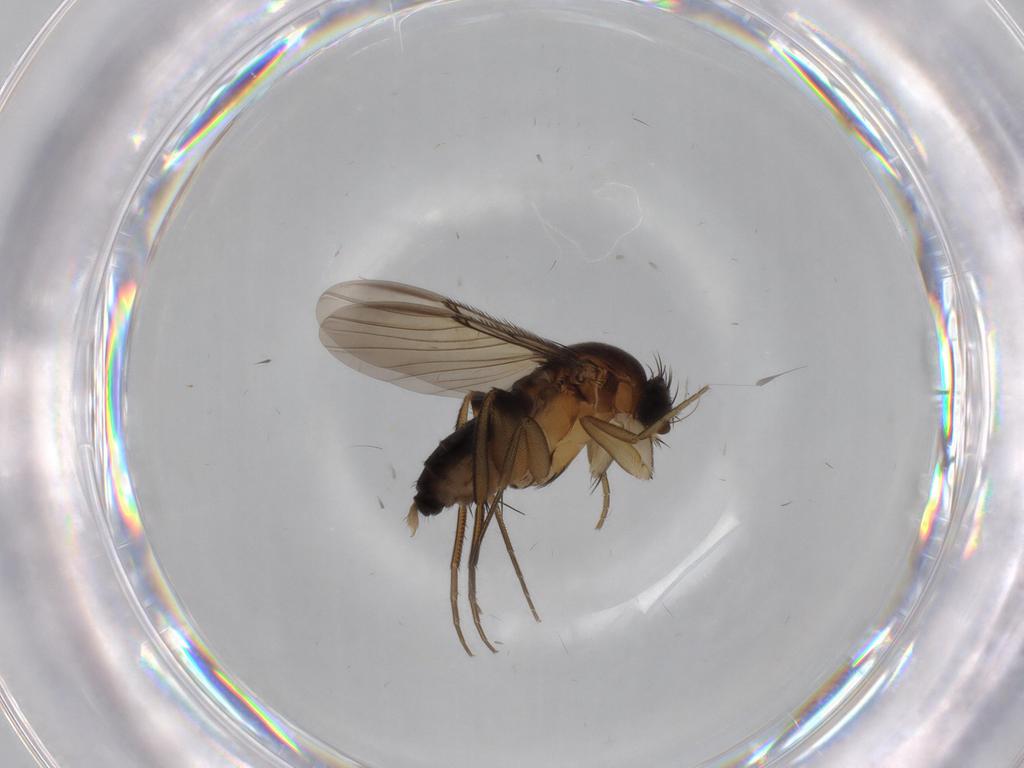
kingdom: Animalia
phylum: Arthropoda
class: Insecta
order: Diptera
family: Phoridae
